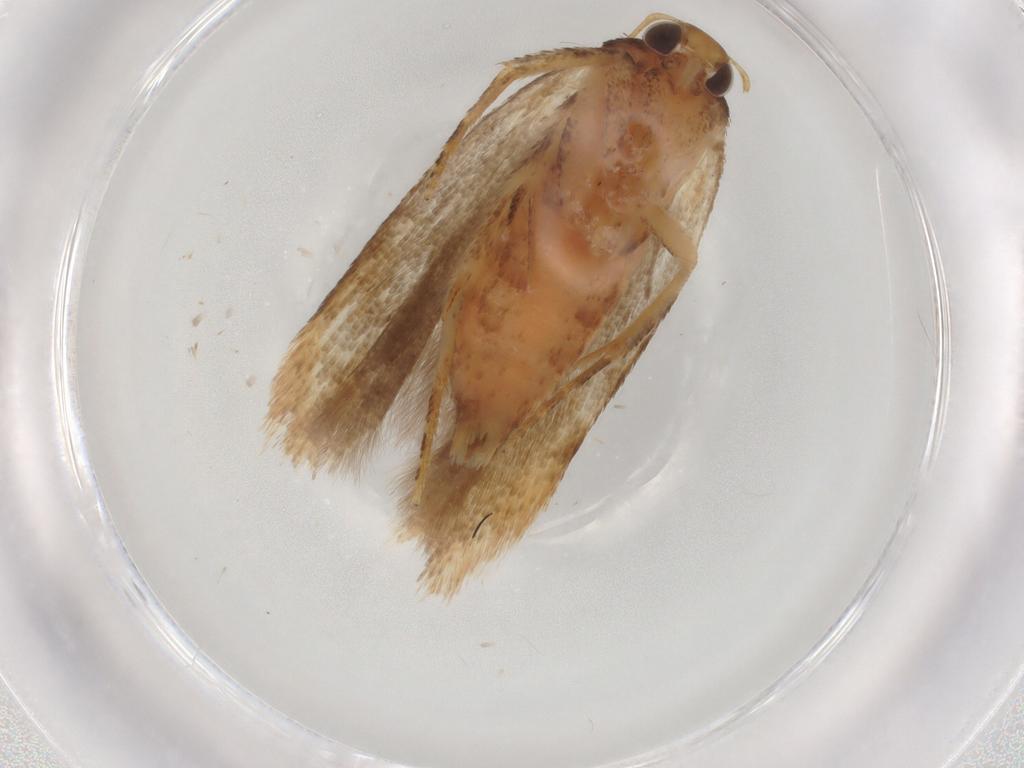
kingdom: Animalia
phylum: Arthropoda
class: Insecta
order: Lepidoptera
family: Gelechiidae
